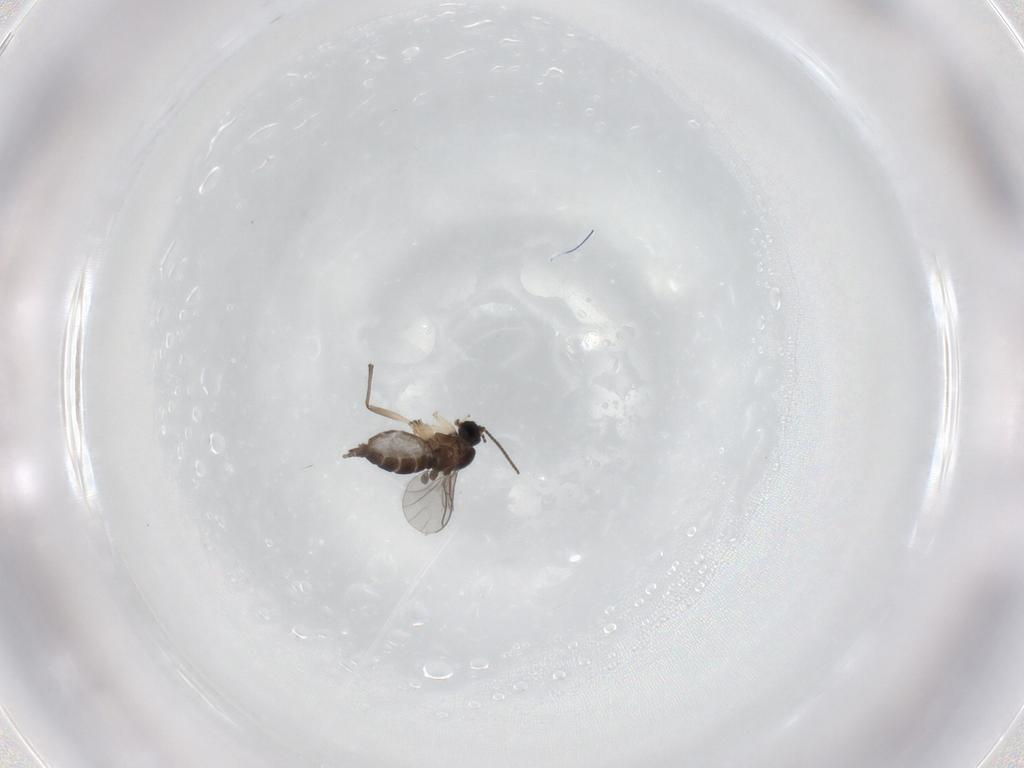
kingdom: Animalia
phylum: Arthropoda
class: Insecta
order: Diptera
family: Sciaridae
